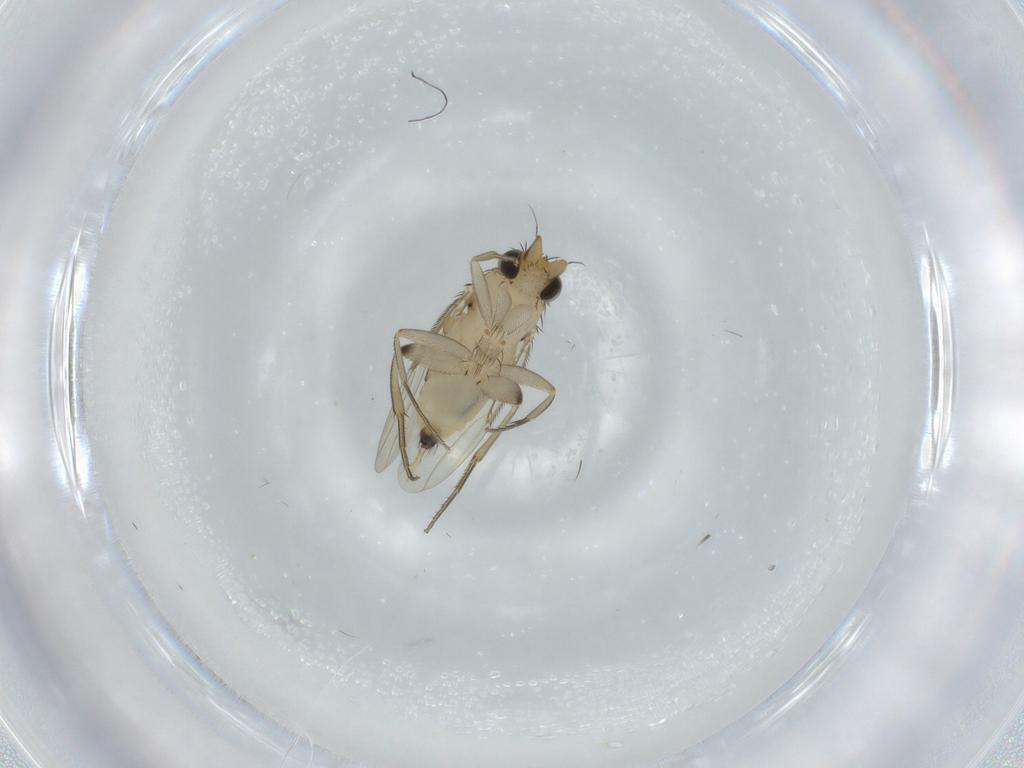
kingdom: Animalia
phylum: Arthropoda
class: Insecta
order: Diptera
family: Phoridae
